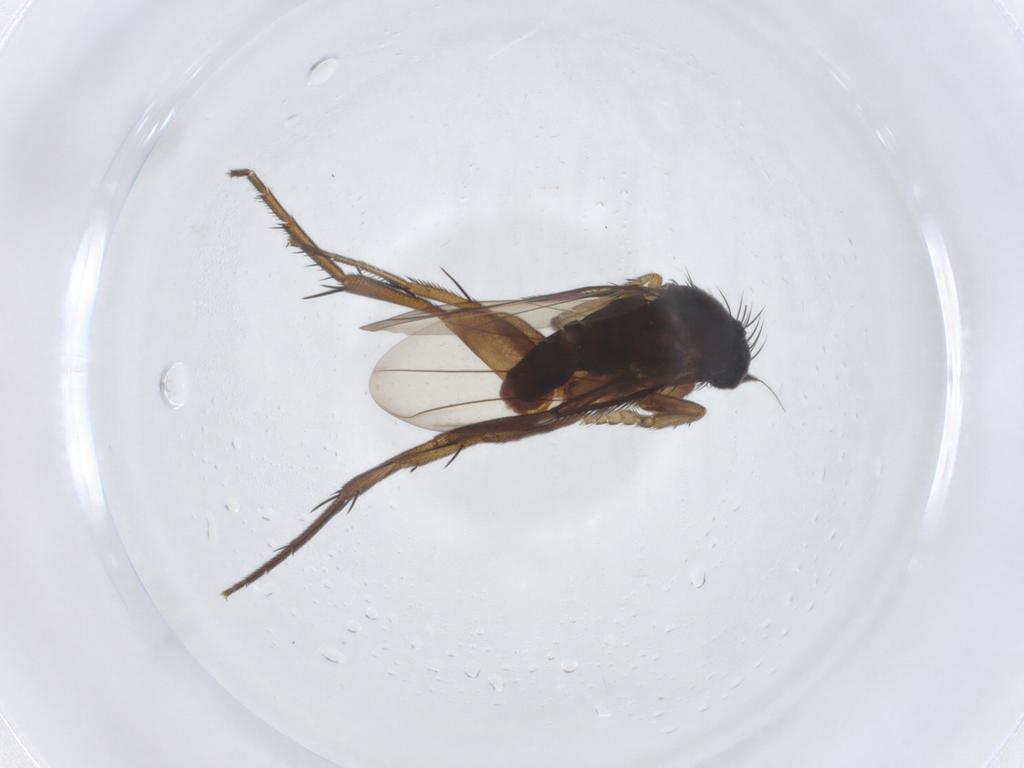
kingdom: Animalia
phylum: Arthropoda
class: Insecta
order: Diptera
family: Phoridae
